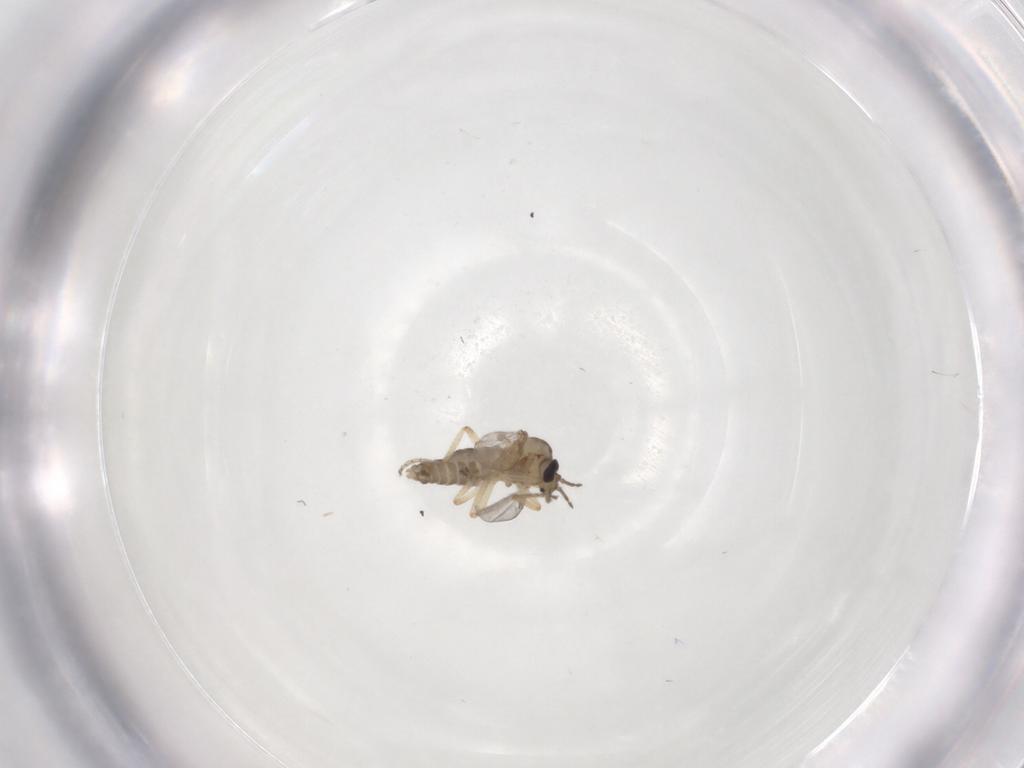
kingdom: Animalia
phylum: Arthropoda
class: Insecta
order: Diptera
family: Ceratopogonidae
